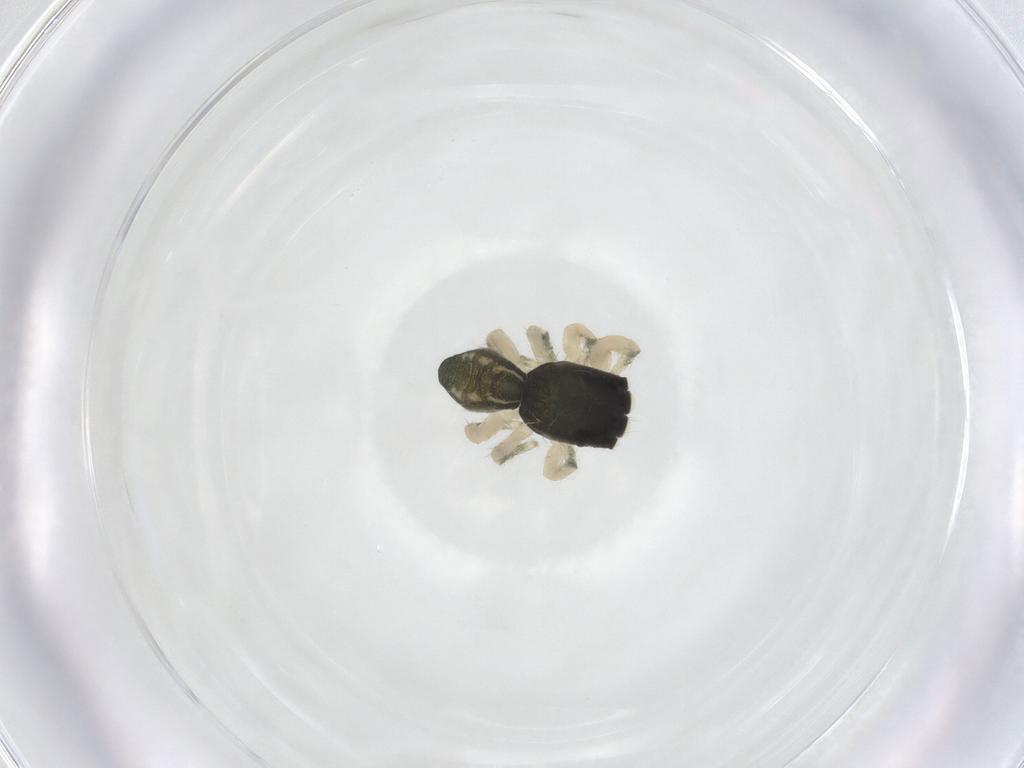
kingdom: Animalia
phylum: Arthropoda
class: Arachnida
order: Araneae
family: Salticidae
